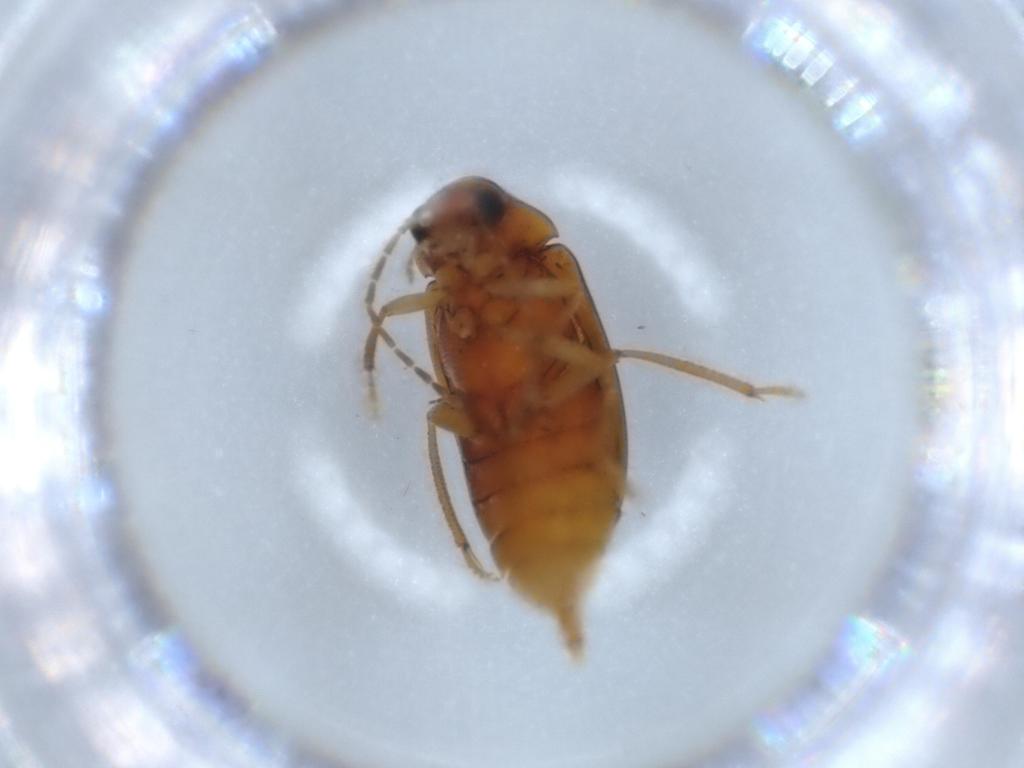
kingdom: Animalia
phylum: Arthropoda
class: Insecta
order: Coleoptera
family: Ptilodactylidae
